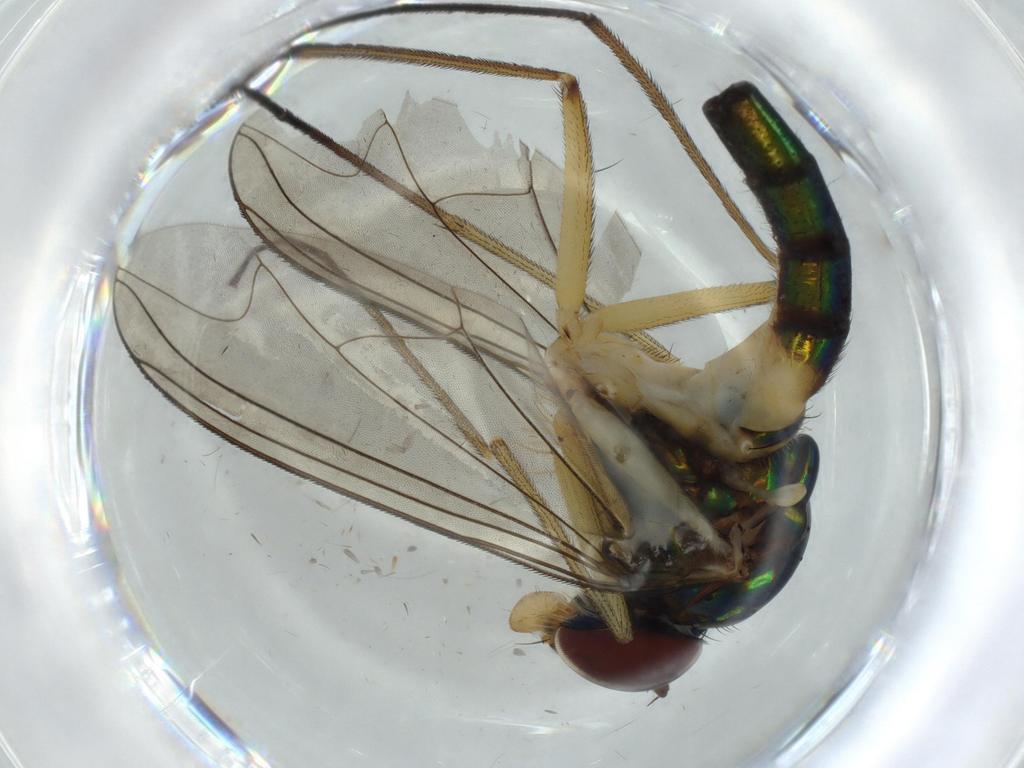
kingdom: Animalia
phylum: Arthropoda
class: Insecta
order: Diptera
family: Dolichopodidae
